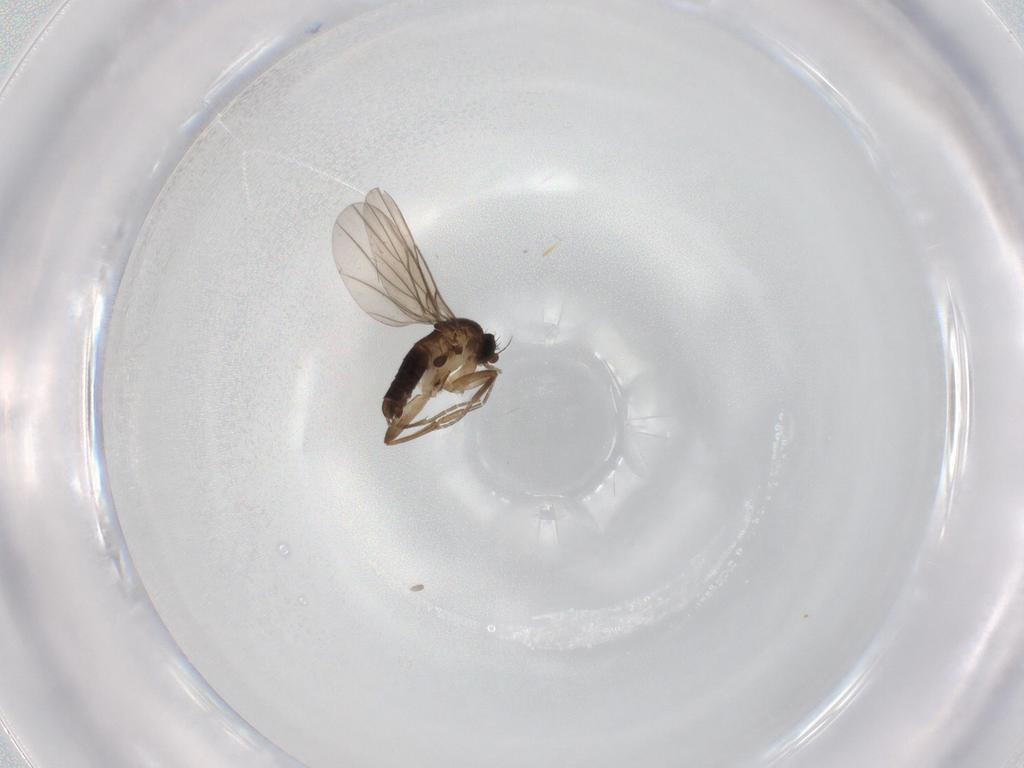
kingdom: Animalia
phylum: Arthropoda
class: Insecta
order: Diptera
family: Phoridae
